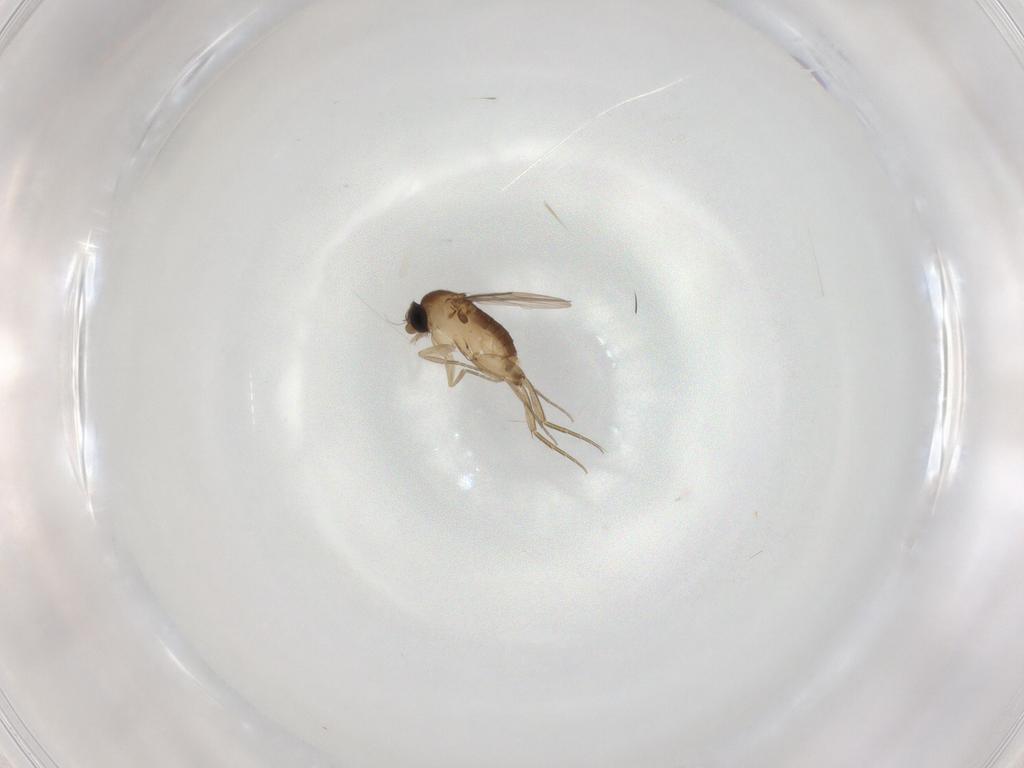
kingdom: Animalia
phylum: Arthropoda
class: Insecta
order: Diptera
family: Phoridae
